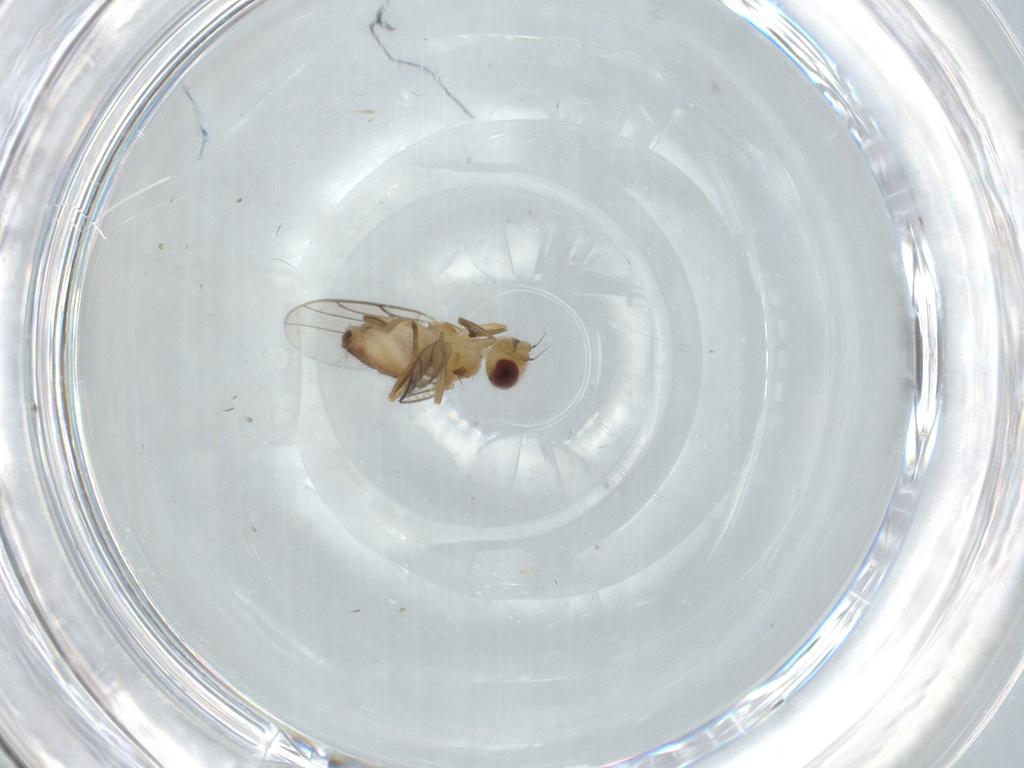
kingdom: Animalia
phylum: Arthropoda
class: Insecta
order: Diptera
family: Chloropidae
